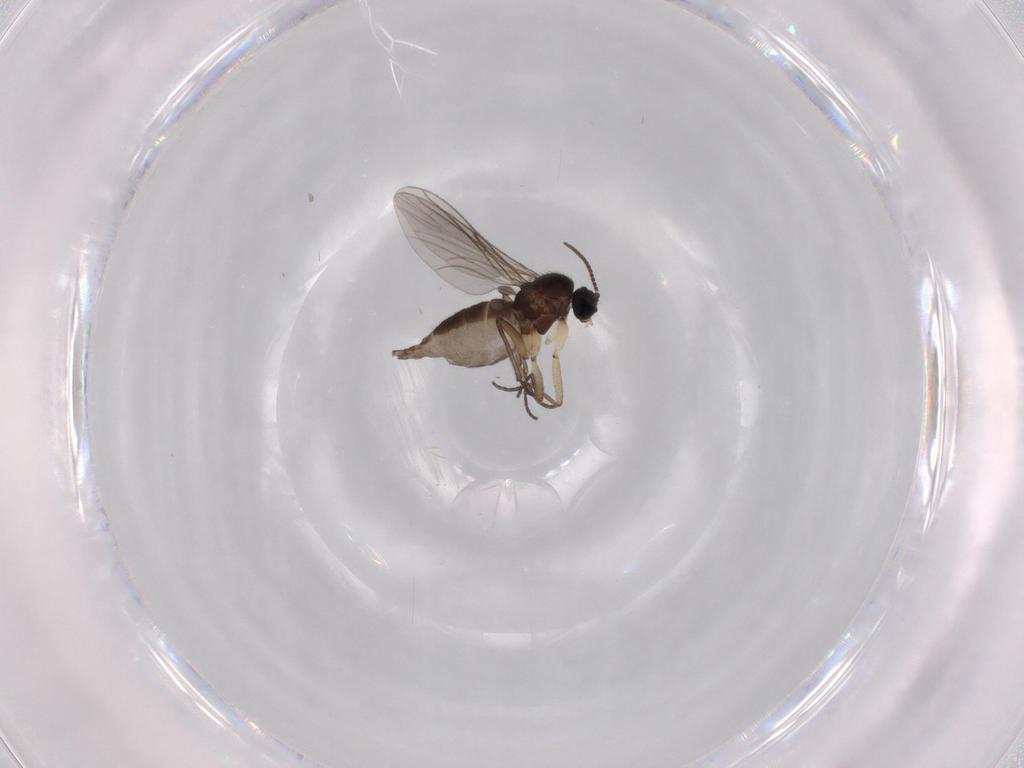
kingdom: Animalia
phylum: Arthropoda
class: Insecta
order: Diptera
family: Sciaridae
